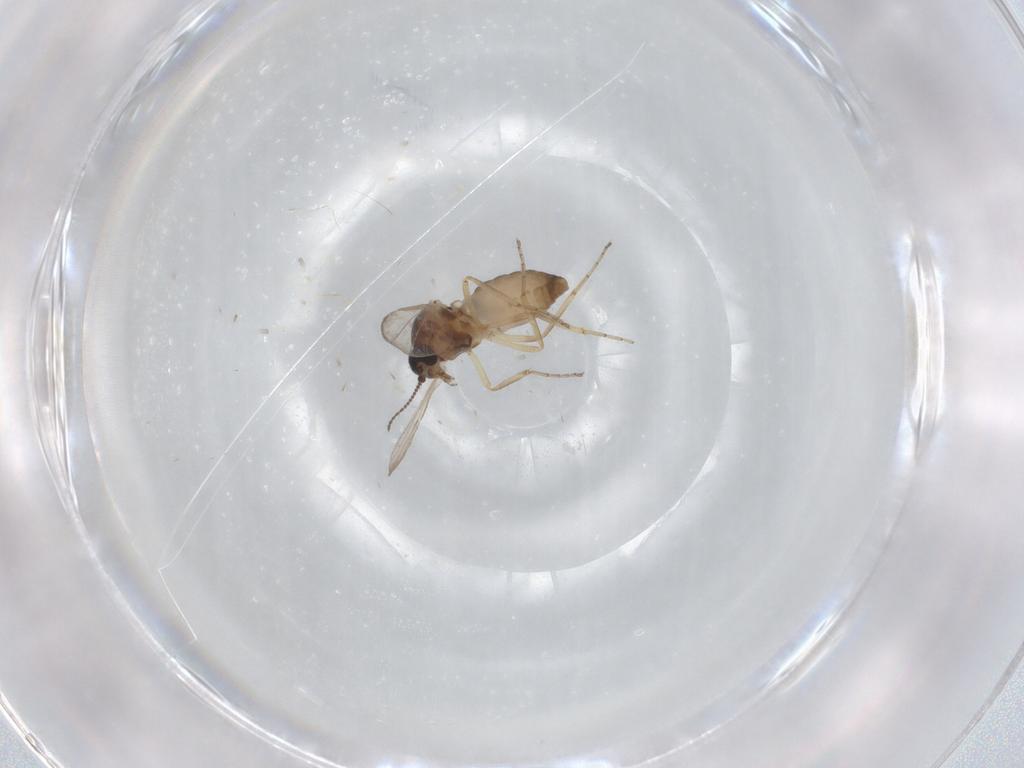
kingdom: Animalia
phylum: Arthropoda
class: Insecta
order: Diptera
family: Ceratopogonidae
